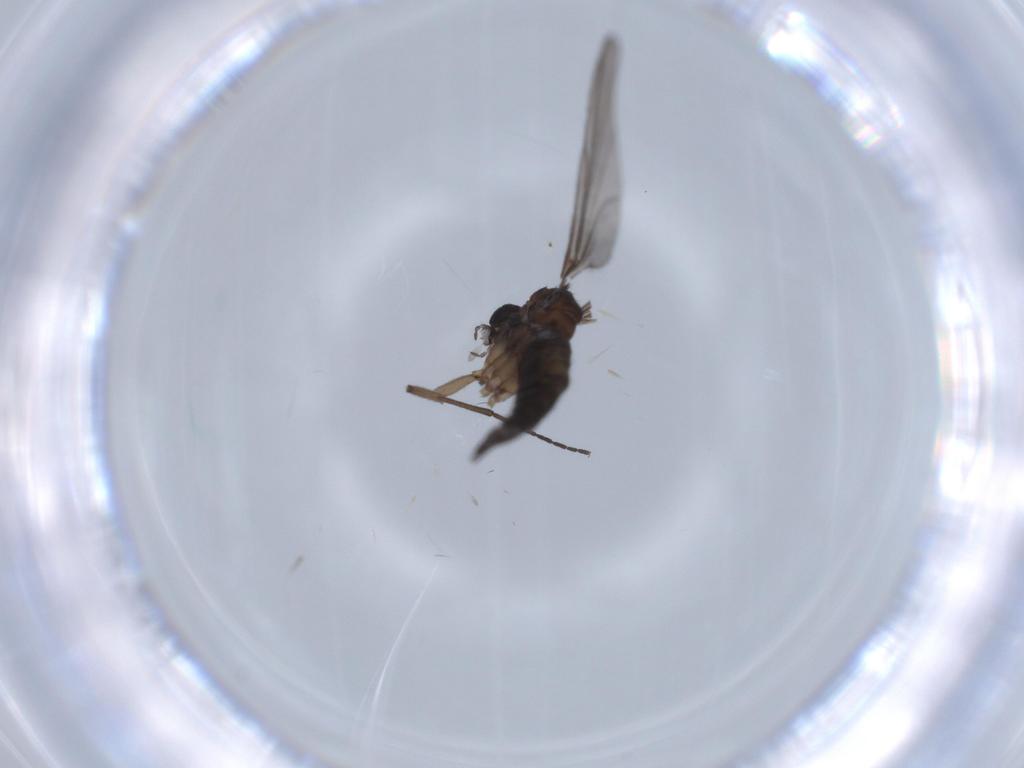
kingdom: Animalia
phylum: Arthropoda
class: Insecta
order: Diptera
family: Sciaridae
